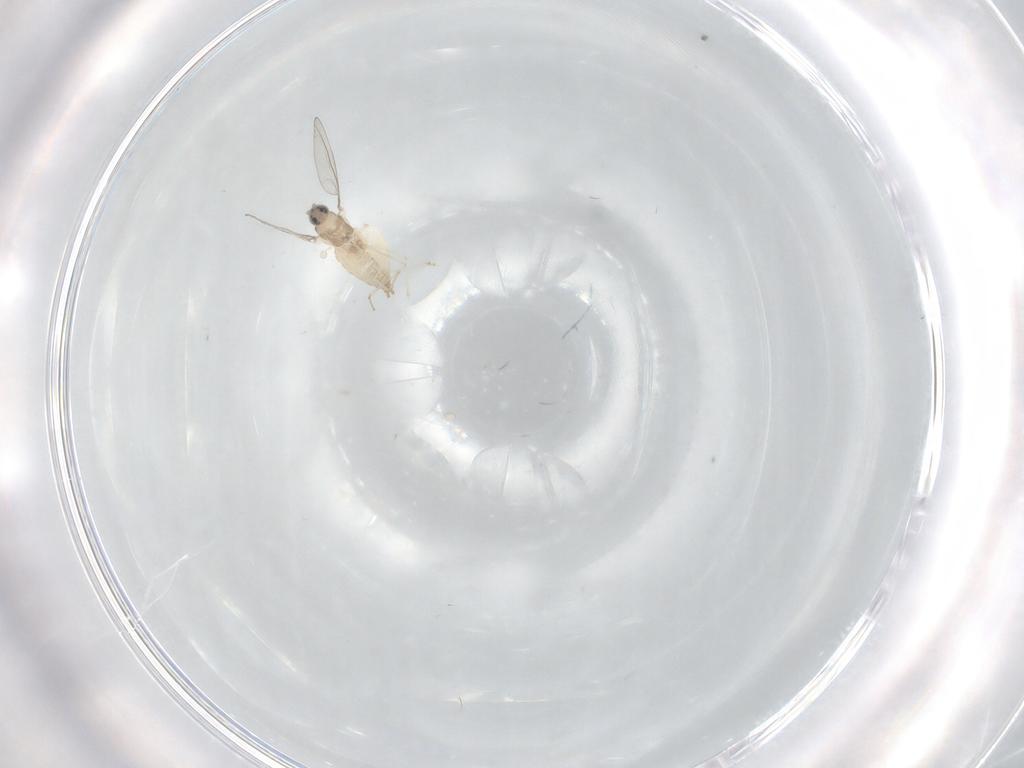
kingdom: Animalia
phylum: Arthropoda
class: Insecta
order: Diptera
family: Cecidomyiidae
